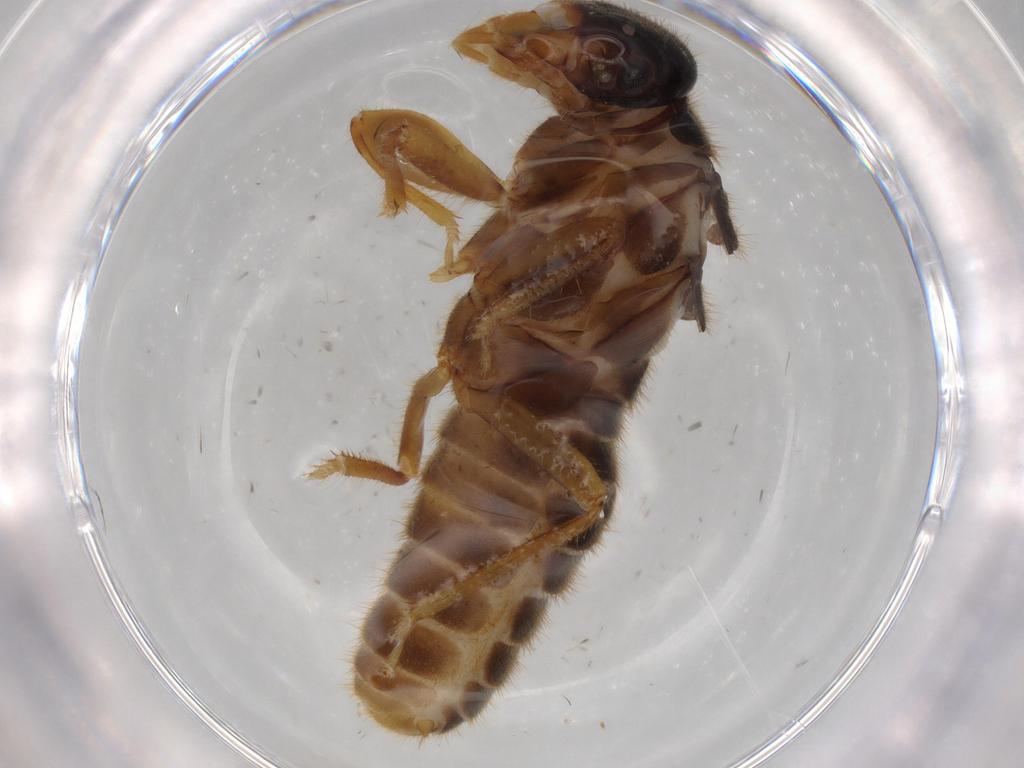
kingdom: Animalia
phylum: Arthropoda
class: Insecta
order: Blattodea
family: Termitidae
